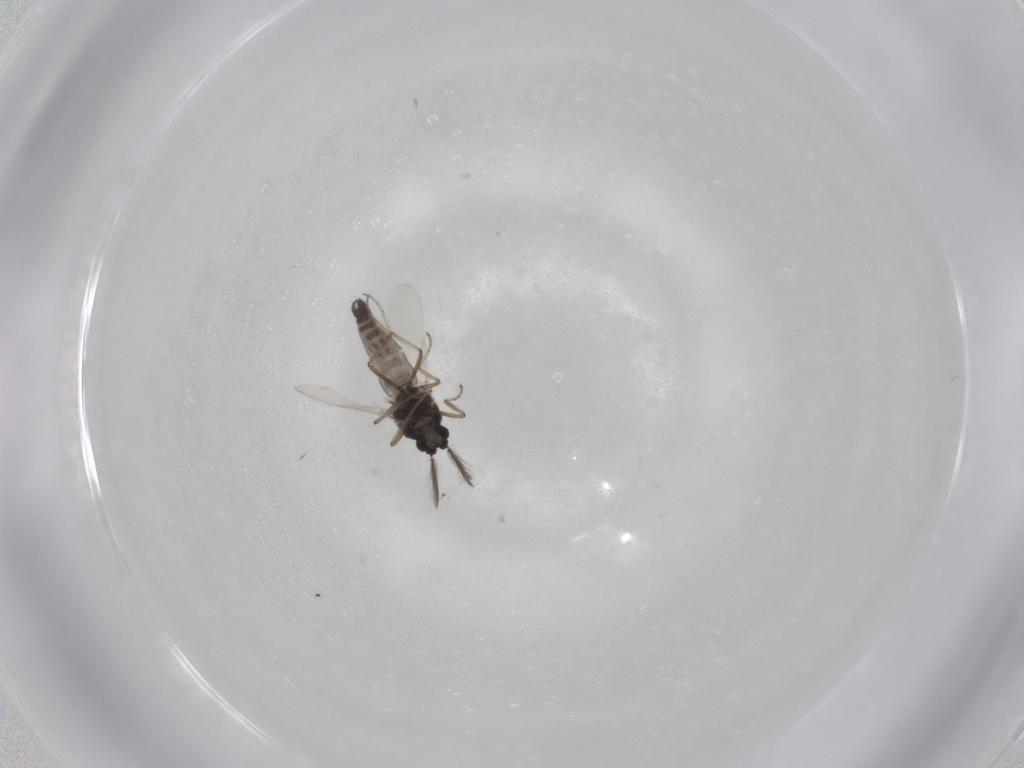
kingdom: Animalia
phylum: Arthropoda
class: Insecta
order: Diptera
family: Ceratopogonidae
